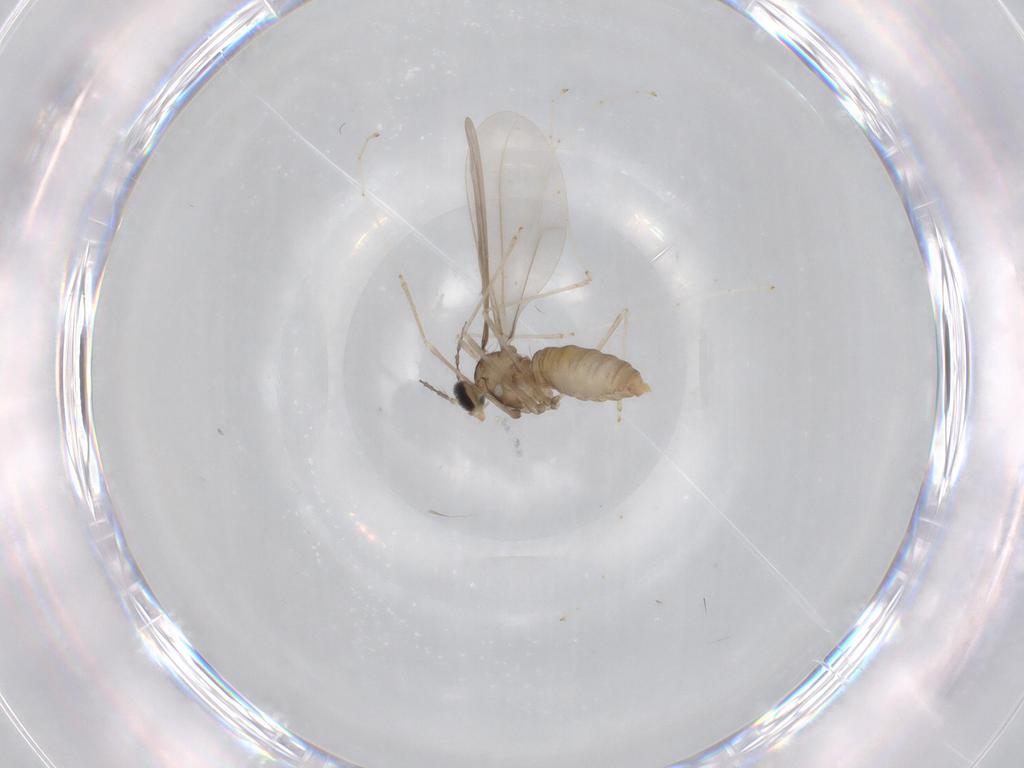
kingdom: Animalia
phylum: Arthropoda
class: Insecta
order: Diptera
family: Cecidomyiidae
